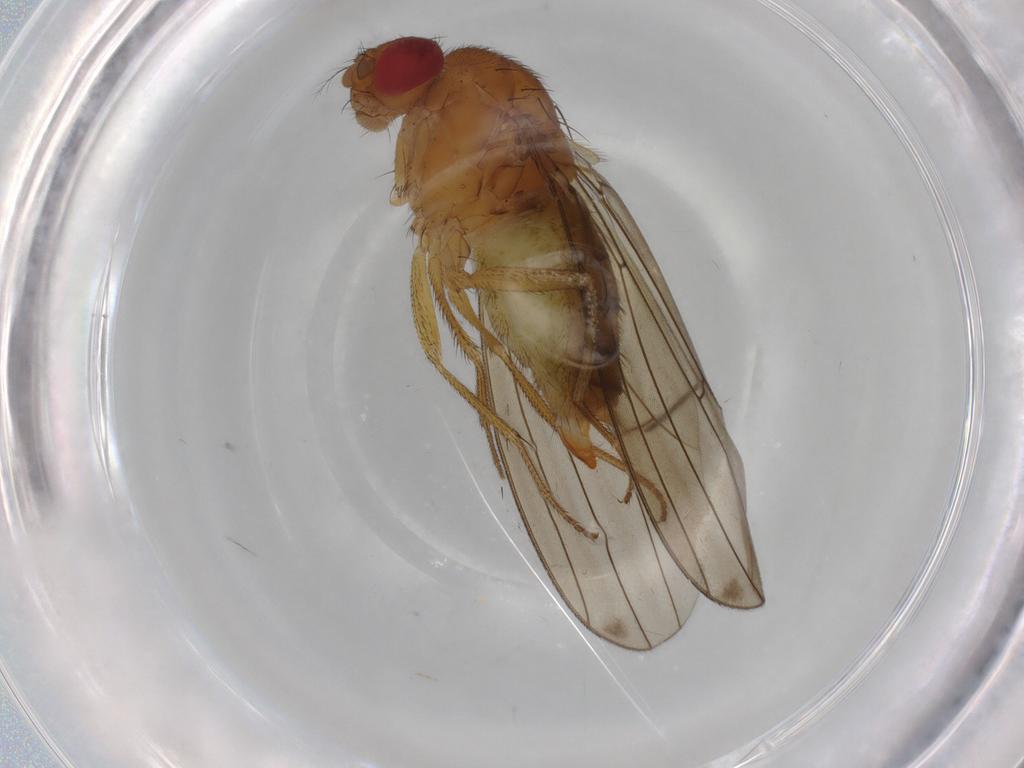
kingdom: Animalia
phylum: Arthropoda
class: Insecta
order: Diptera
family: Drosophilidae
